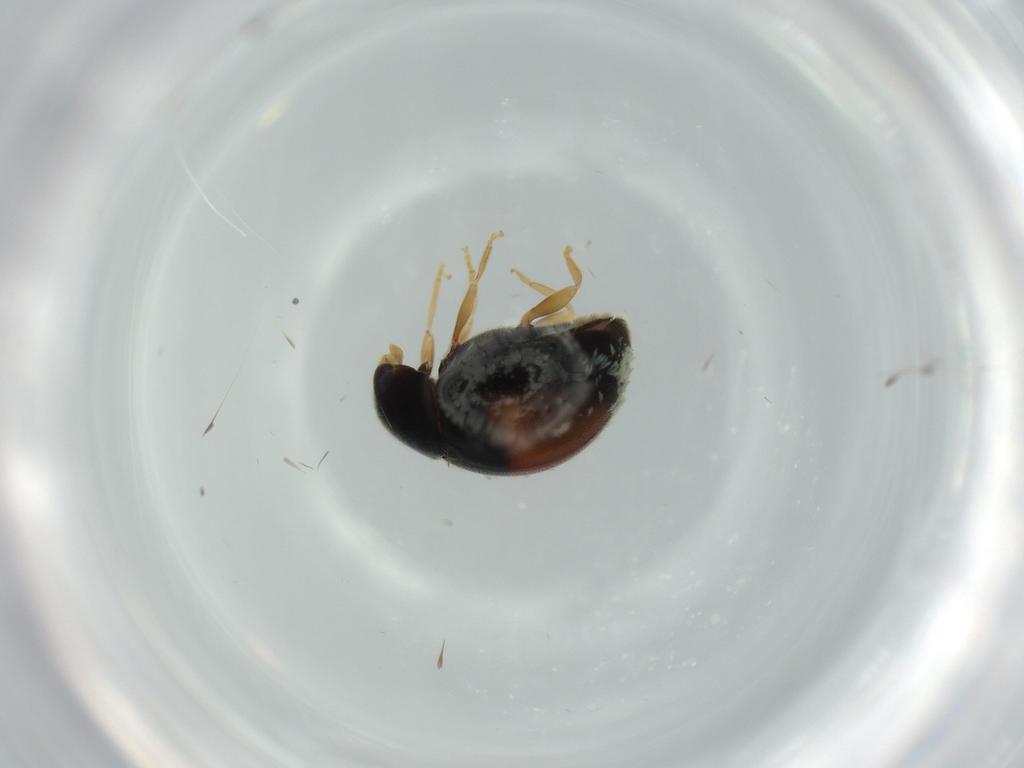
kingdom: Animalia
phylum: Arthropoda
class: Insecta
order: Coleoptera
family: Coccinellidae
